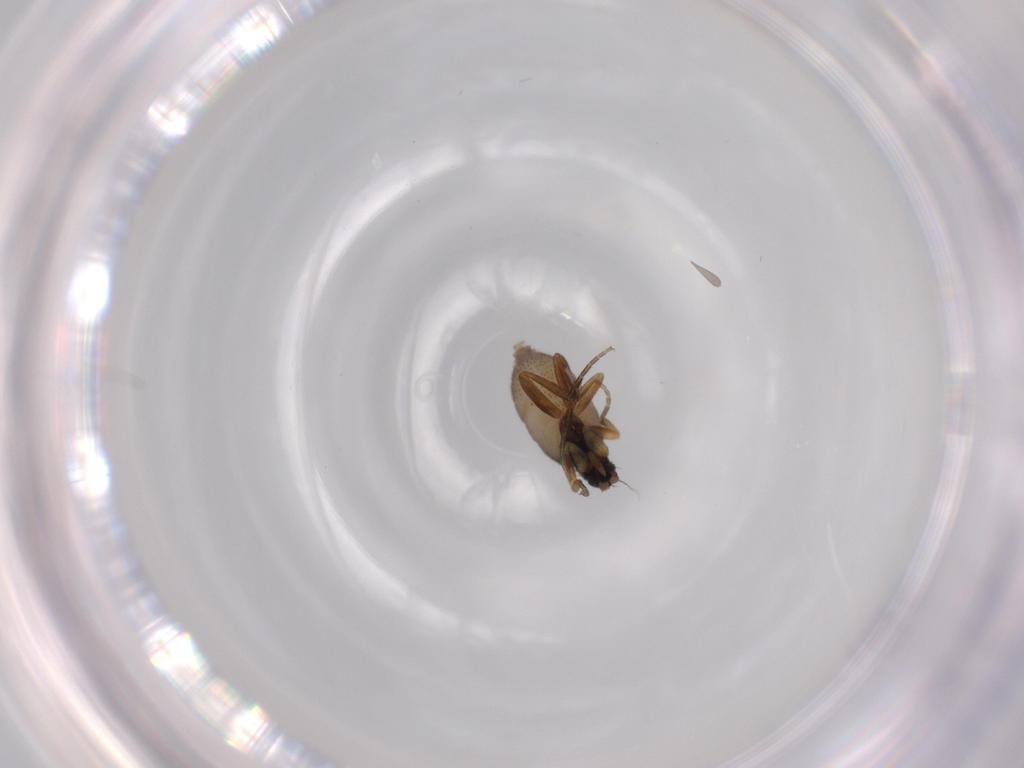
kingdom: Animalia
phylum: Arthropoda
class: Insecta
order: Diptera
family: Phoridae
